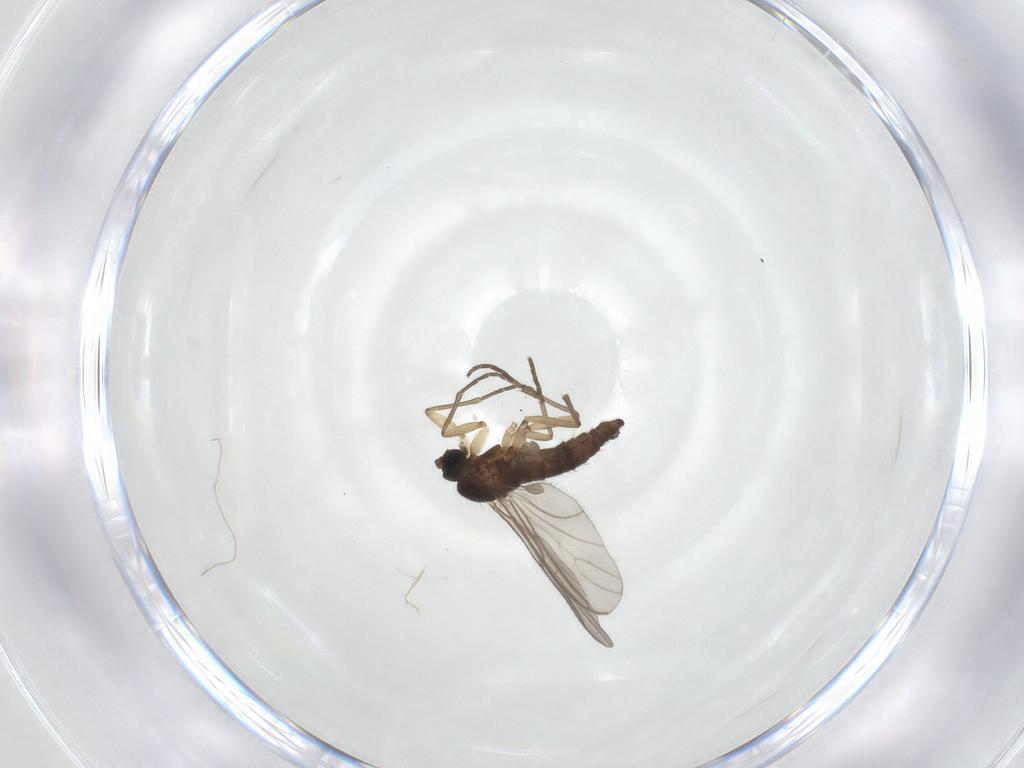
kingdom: Animalia
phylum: Arthropoda
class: Insecta
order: Diptera
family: Sciaridae
